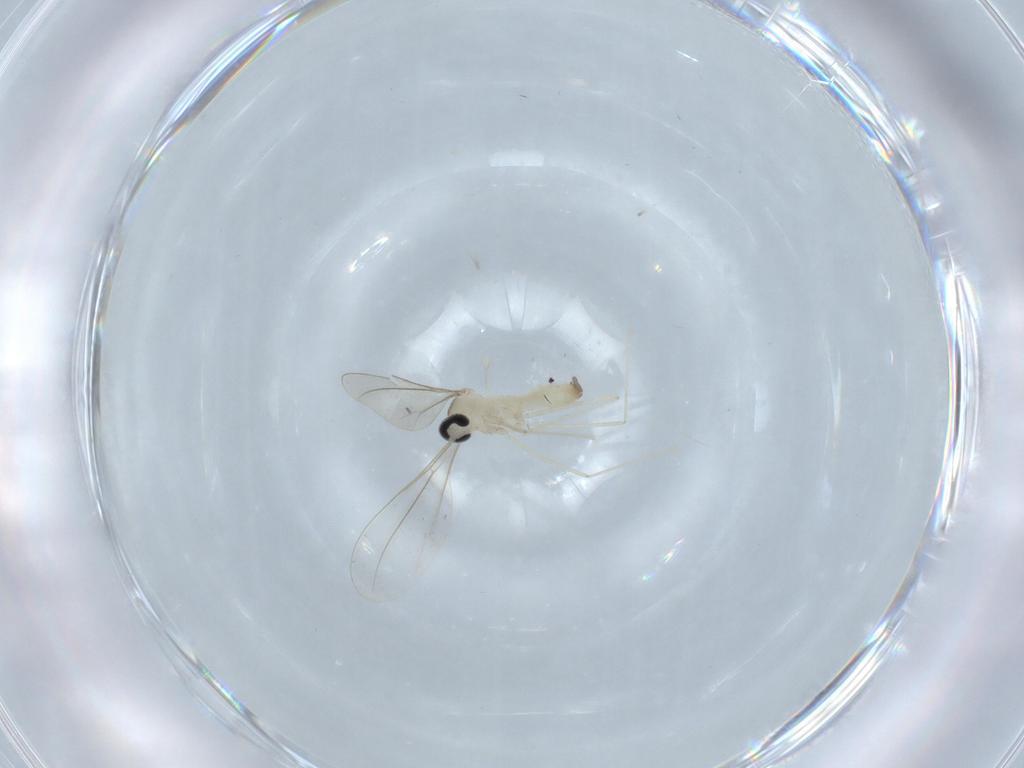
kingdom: Animalia
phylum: Arthropoda
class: Insecta
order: Diptera
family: Cecidomyiidae
